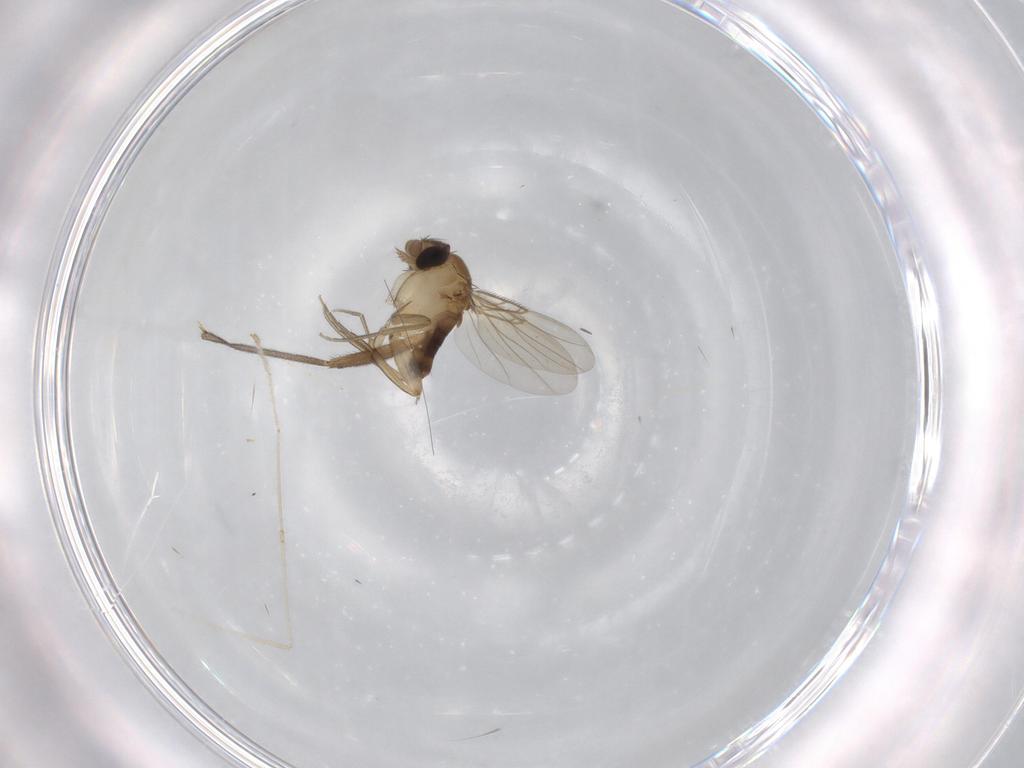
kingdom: Animalia
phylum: Arthropoda
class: Insecta
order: Diptera
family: Cecidomyiidae
